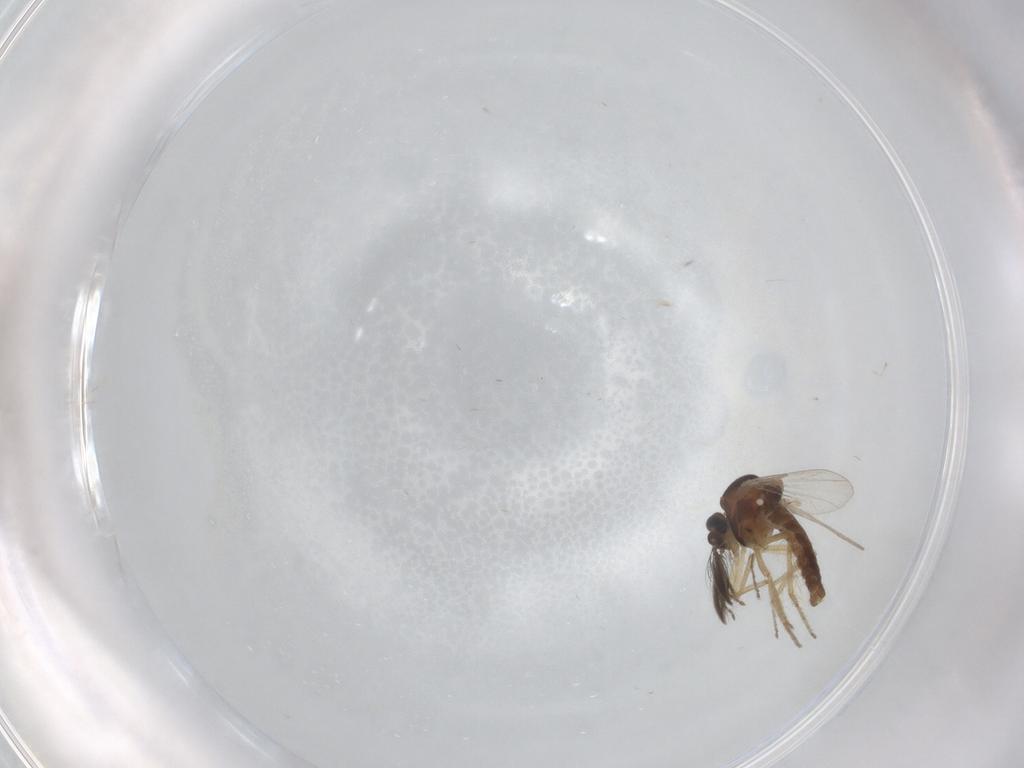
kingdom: Animalia
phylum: Arthropoda
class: Insecta
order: Diptera
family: Ceratopogonidae
